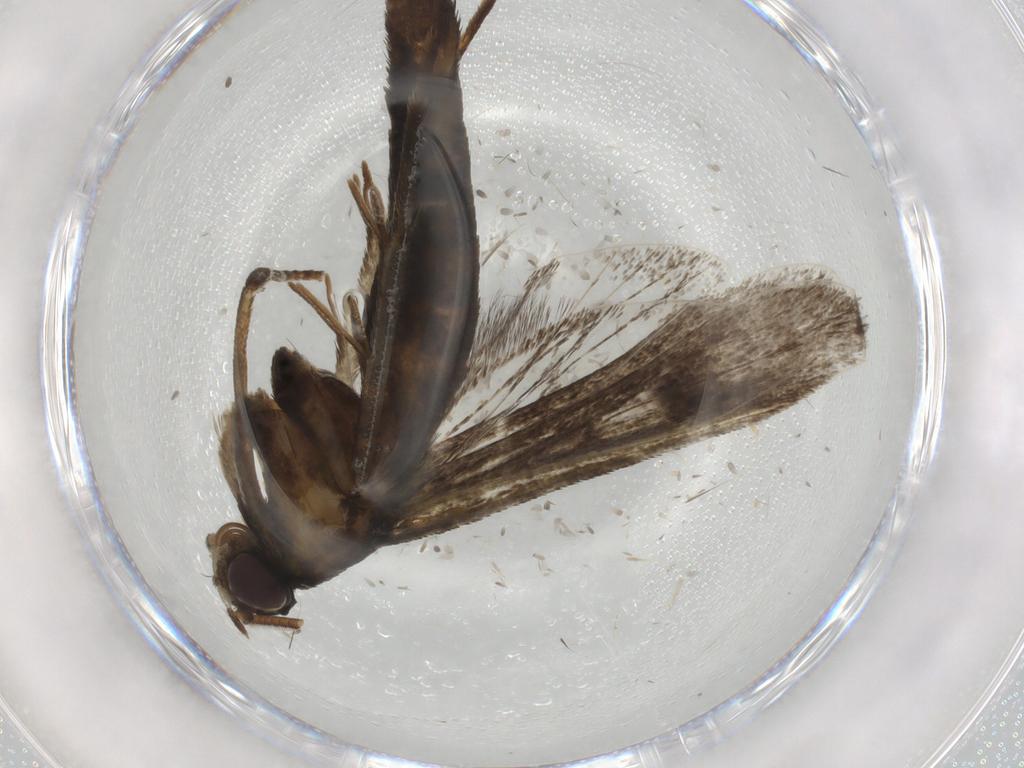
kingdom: Animalia
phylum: Arthropoda
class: Insecta
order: Lepidoptera
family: Sesiidae
